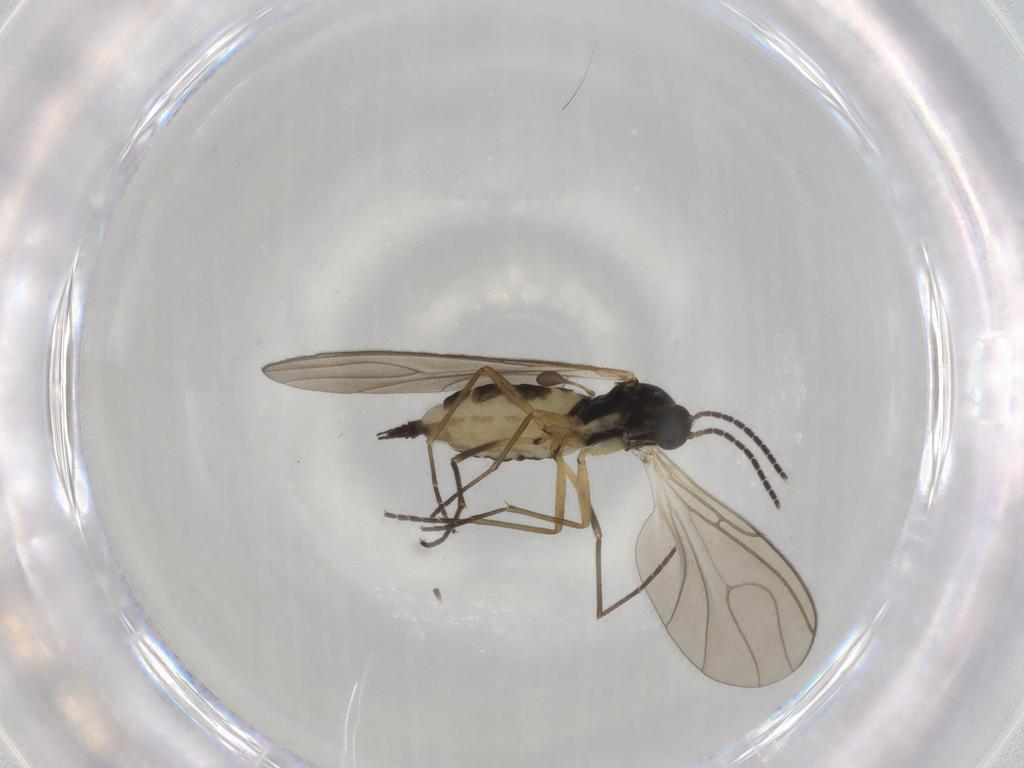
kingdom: Animalia
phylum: Arthropoda
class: Insecta
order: Diptera
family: Sciaridae
